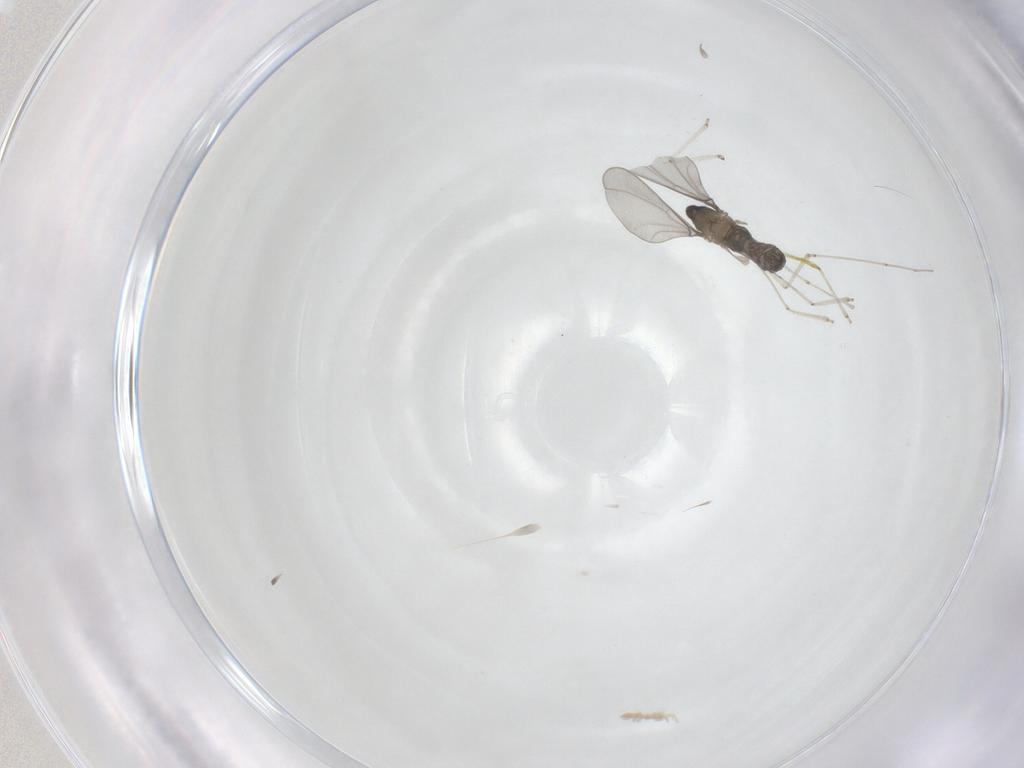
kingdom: Animalia
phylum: Arthropoda
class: Insecta
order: Diptera
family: Cecidomyiidae
